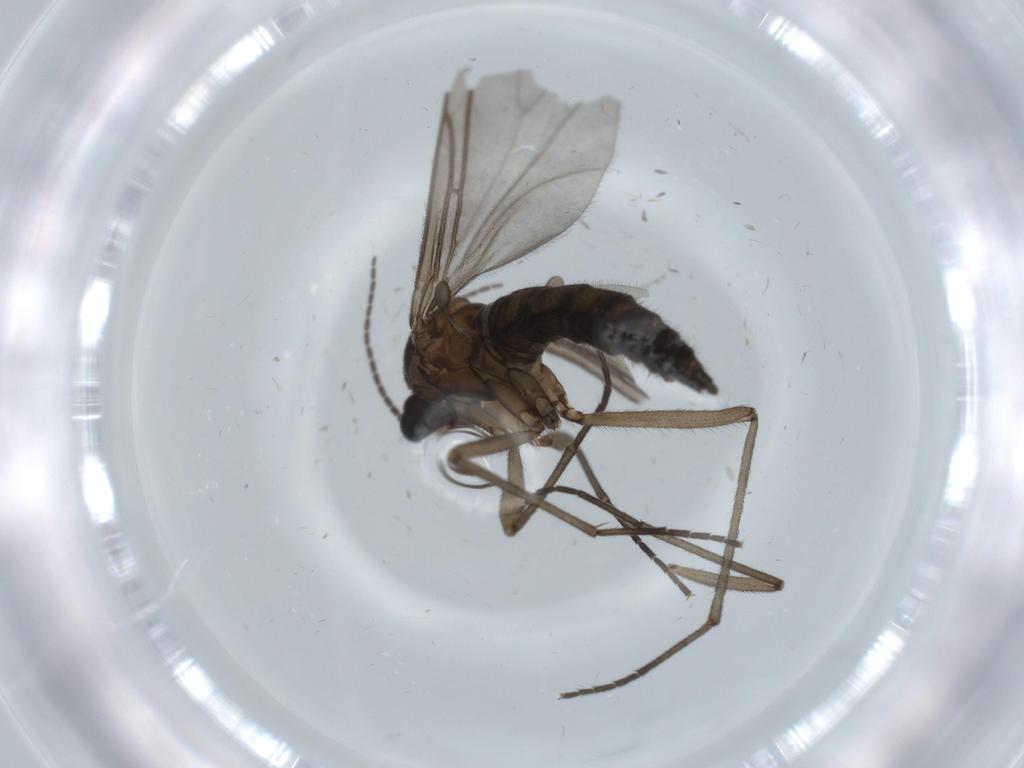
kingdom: Animalia
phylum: Arthropoda
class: Insecta
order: Diptera
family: Sciaridae
